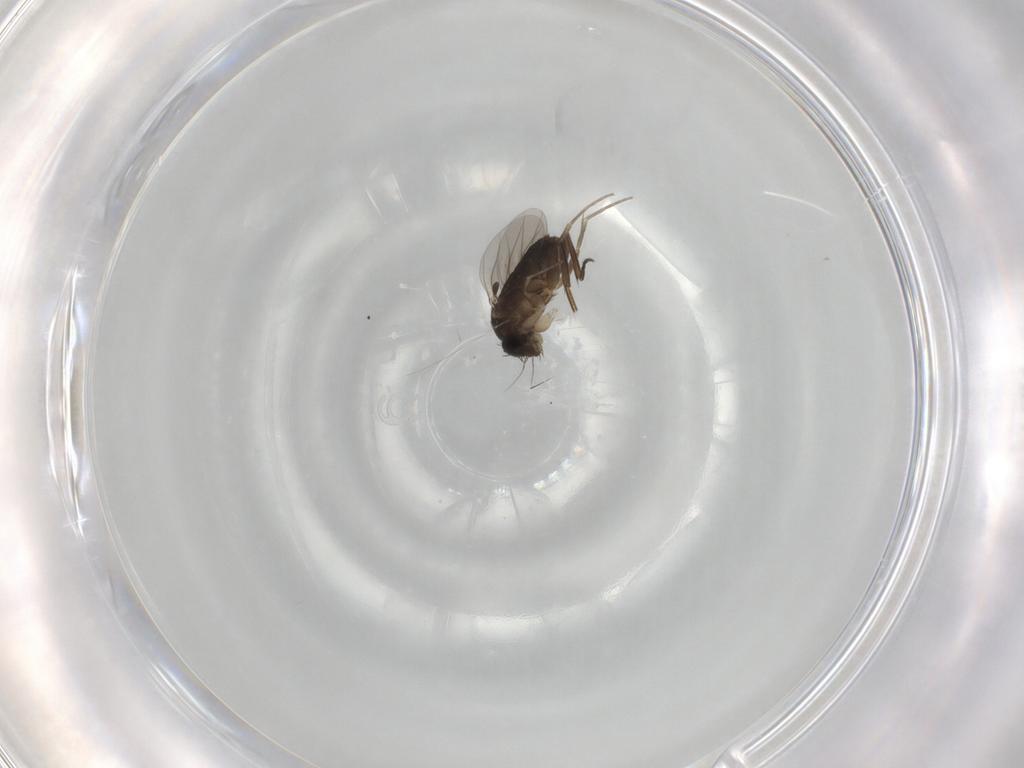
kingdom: Animalia
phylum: Arthropoda
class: Insecta
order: Diptera
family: Phoridae
